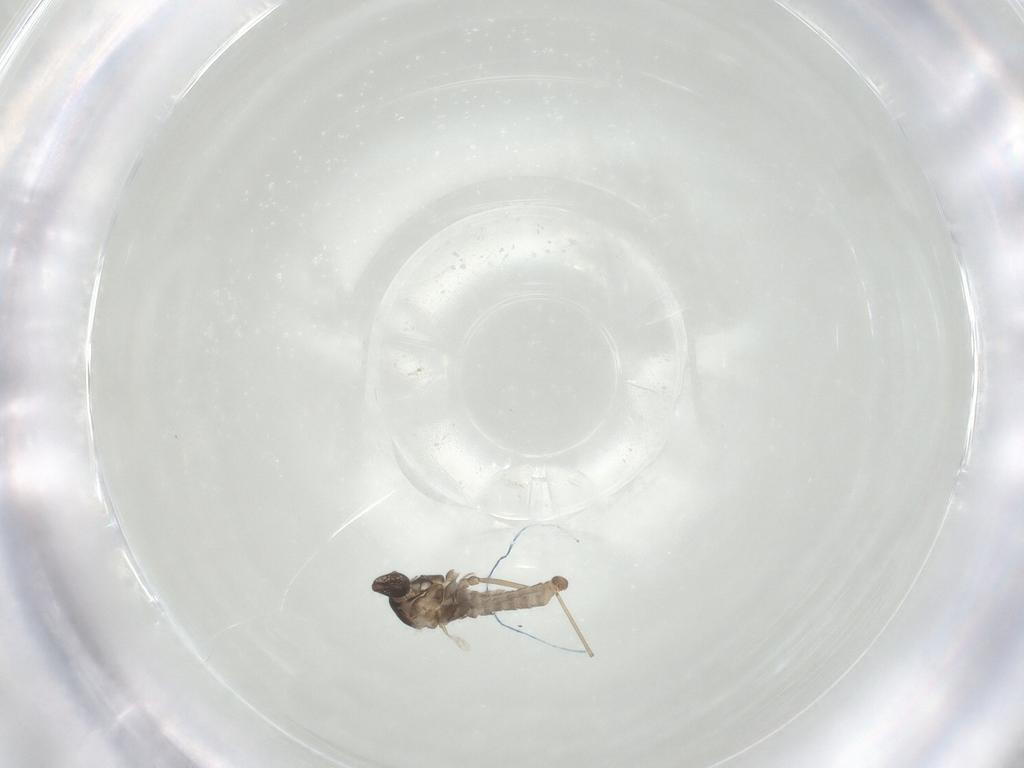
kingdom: Animalia
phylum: Arthropoda
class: Insecta
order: Diptera
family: Cecidomyiidae
